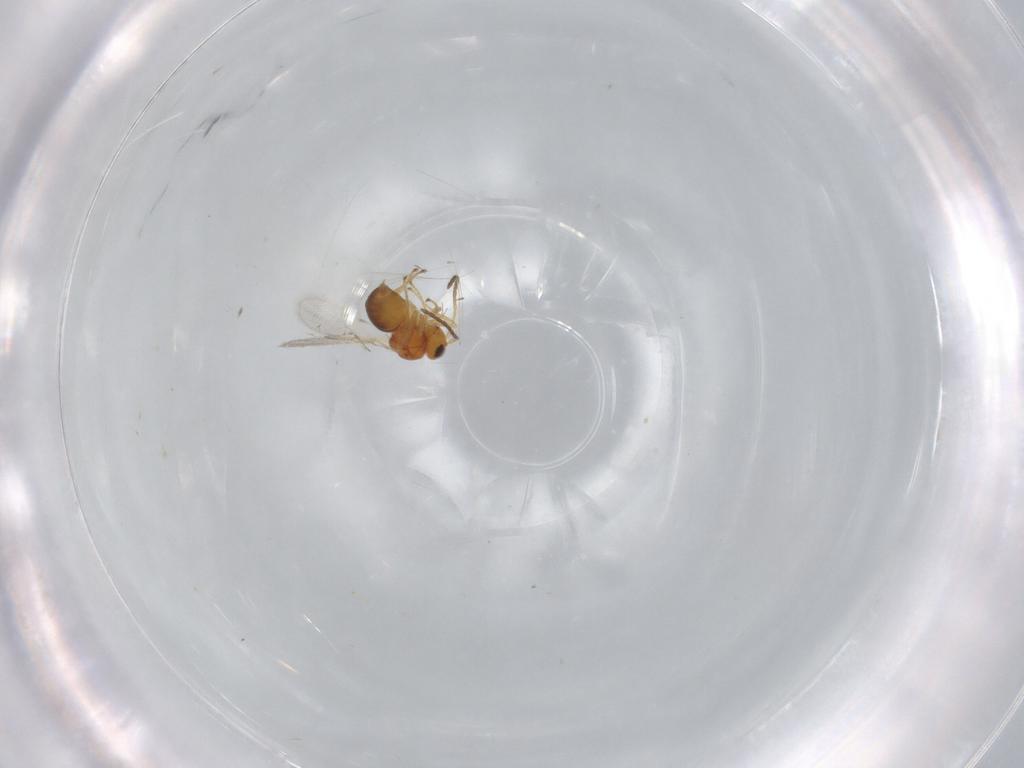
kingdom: Animalia
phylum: Arthropoda
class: Insecta
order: Hymenoptera
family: Figitidae
